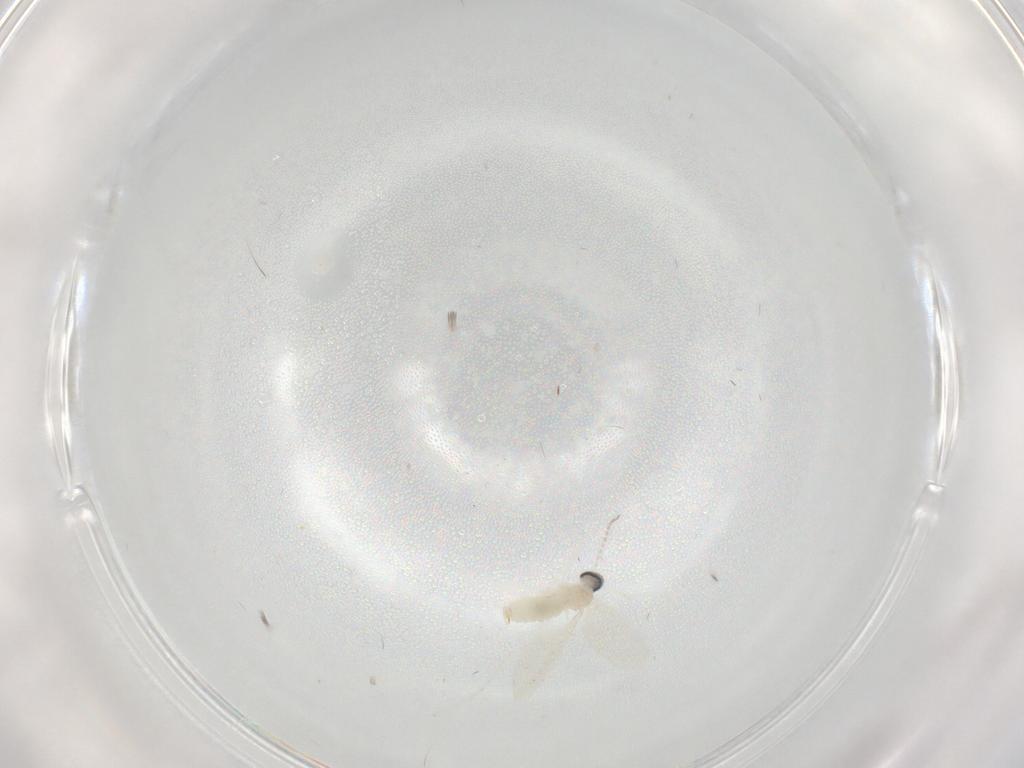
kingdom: Animalia
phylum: Arthropoda
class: Insecta
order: Diptera
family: Cecidomyiidae
